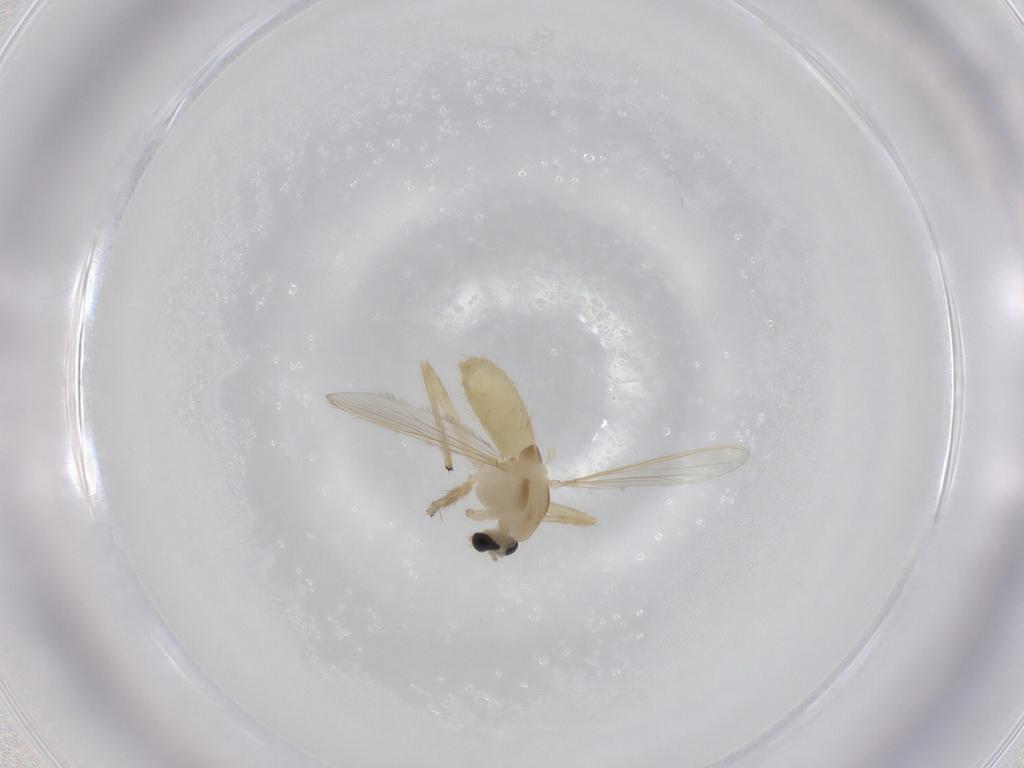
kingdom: Animalia
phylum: Arthropoda
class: Insecta
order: Diptera
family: Chironomidae
